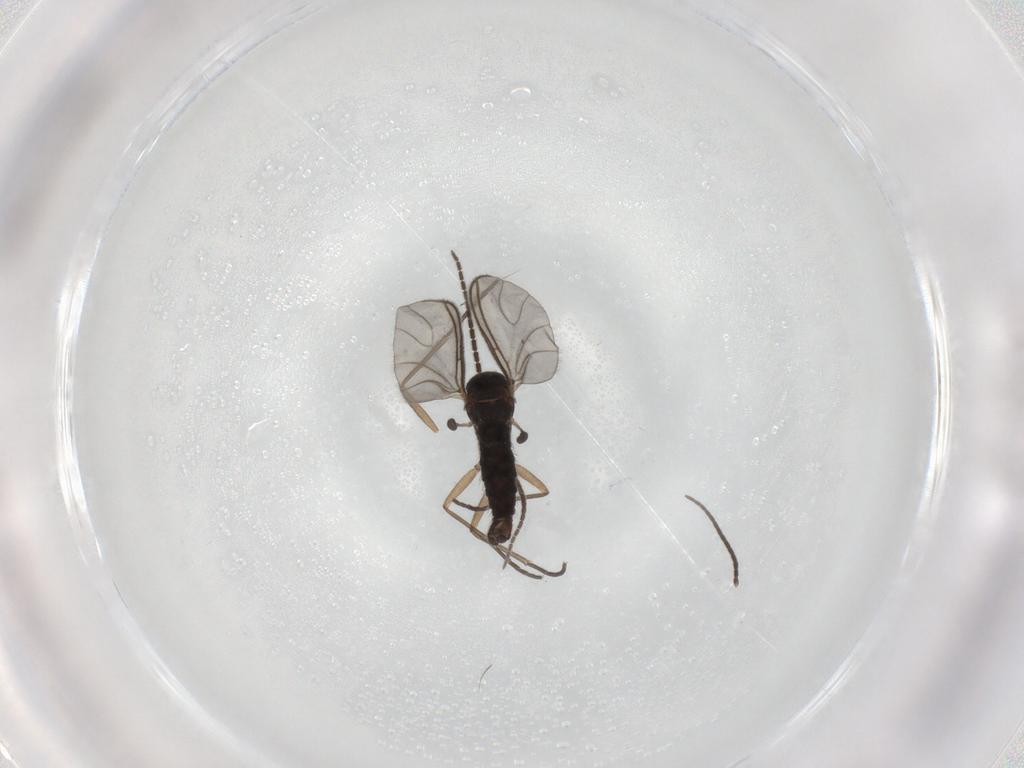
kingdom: Animalia
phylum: Arthropoda
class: Insecta
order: Diptera
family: Sciaridae
